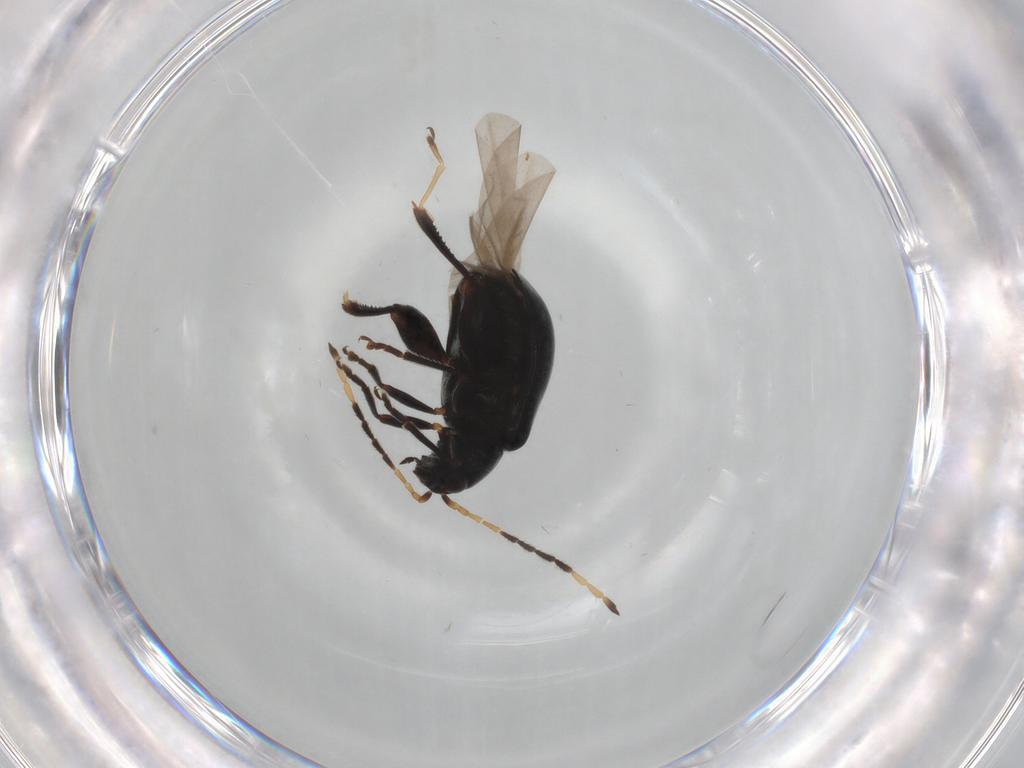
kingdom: Animalia
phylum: Arthropoda
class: Insecta
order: Coleoptera
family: Chrysomelidae
